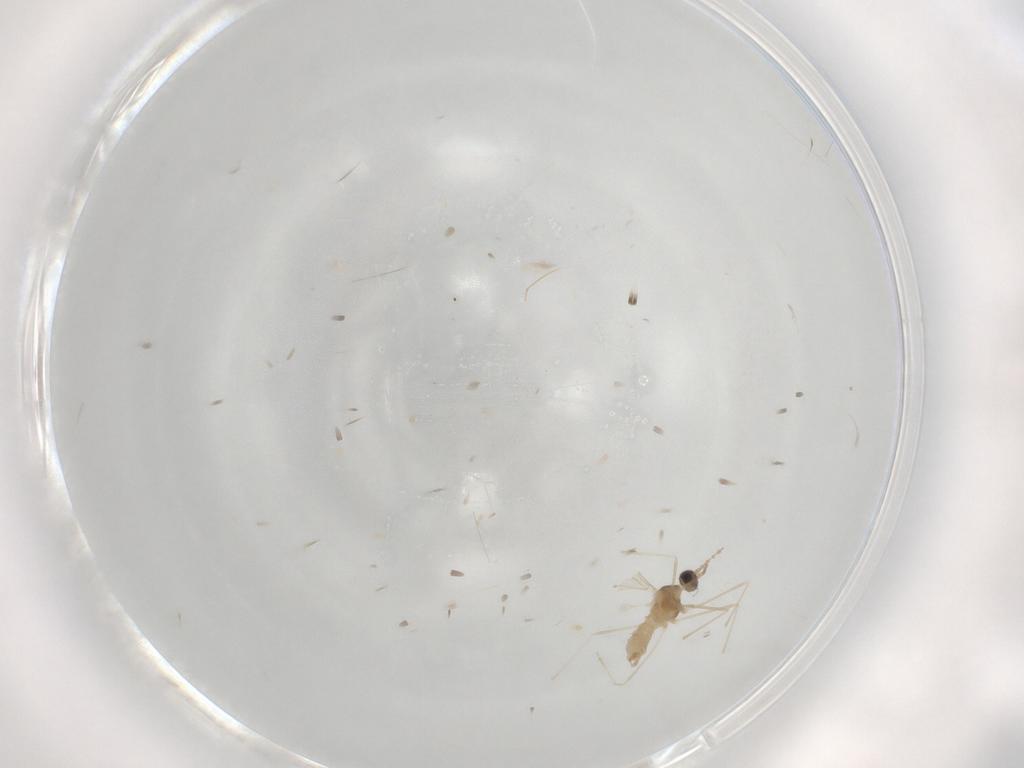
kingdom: Animalia
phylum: Arthropoda
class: Insecta
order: Diptera
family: Cecidomyiidae
